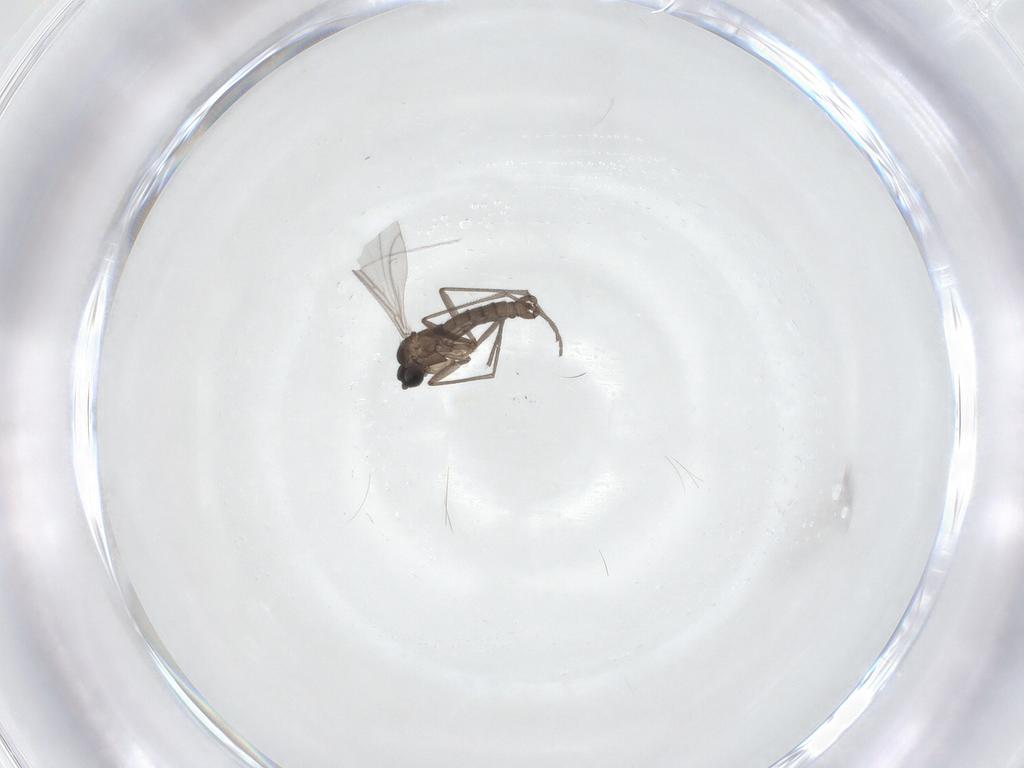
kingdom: Animalia
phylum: Arthropoda
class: Insecta
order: Diptera
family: Sciaridae
